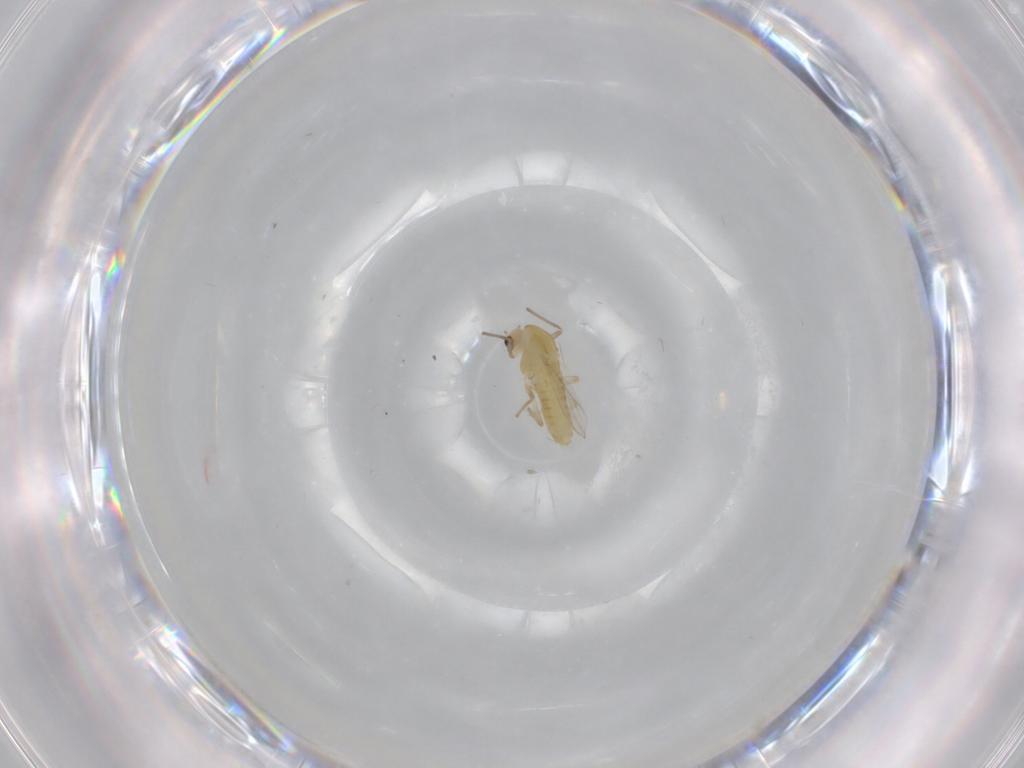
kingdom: Animalia
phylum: Arthropoda
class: Insecta
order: Diptera
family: Chironomidae
